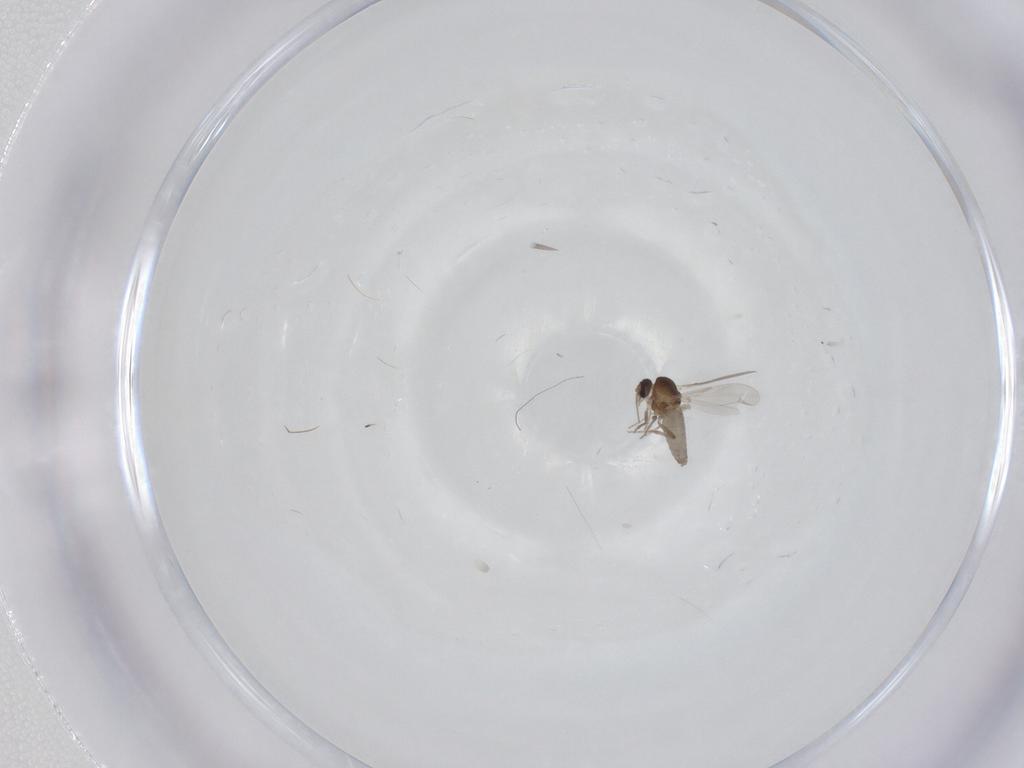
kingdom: Animalia
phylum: Arthropoda
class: Insecta
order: Diptera
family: Ceratopogonidae
